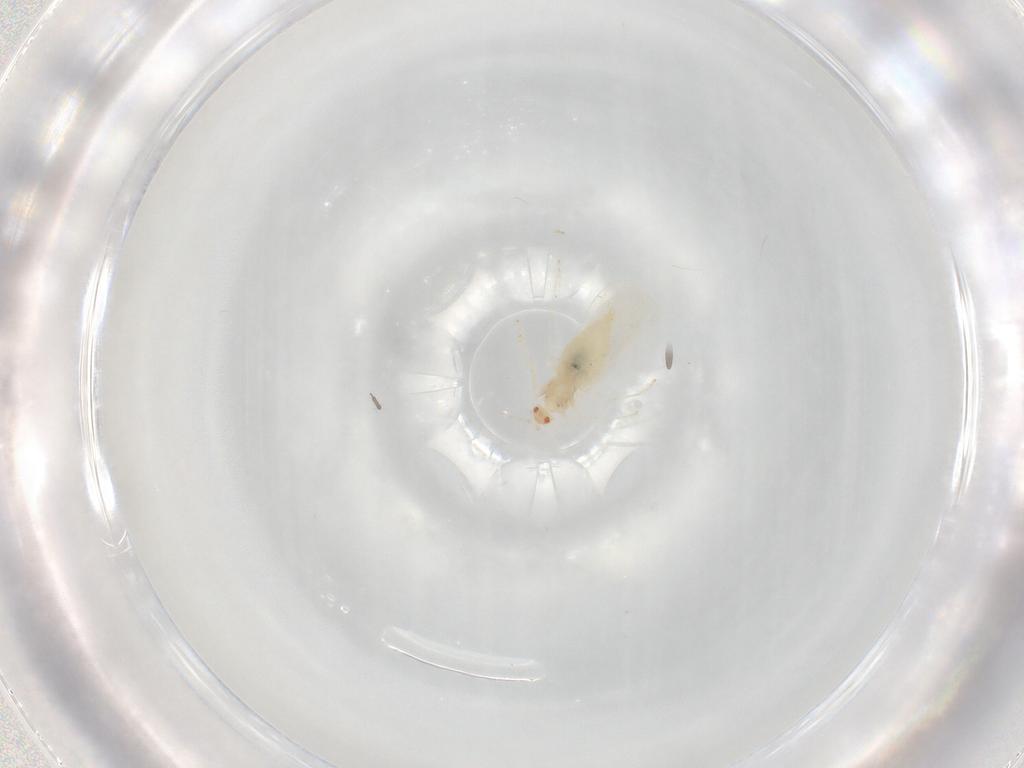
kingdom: Animalia
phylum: Arthropoda
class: Insecta
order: Diptera
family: Cecidomyiidae
